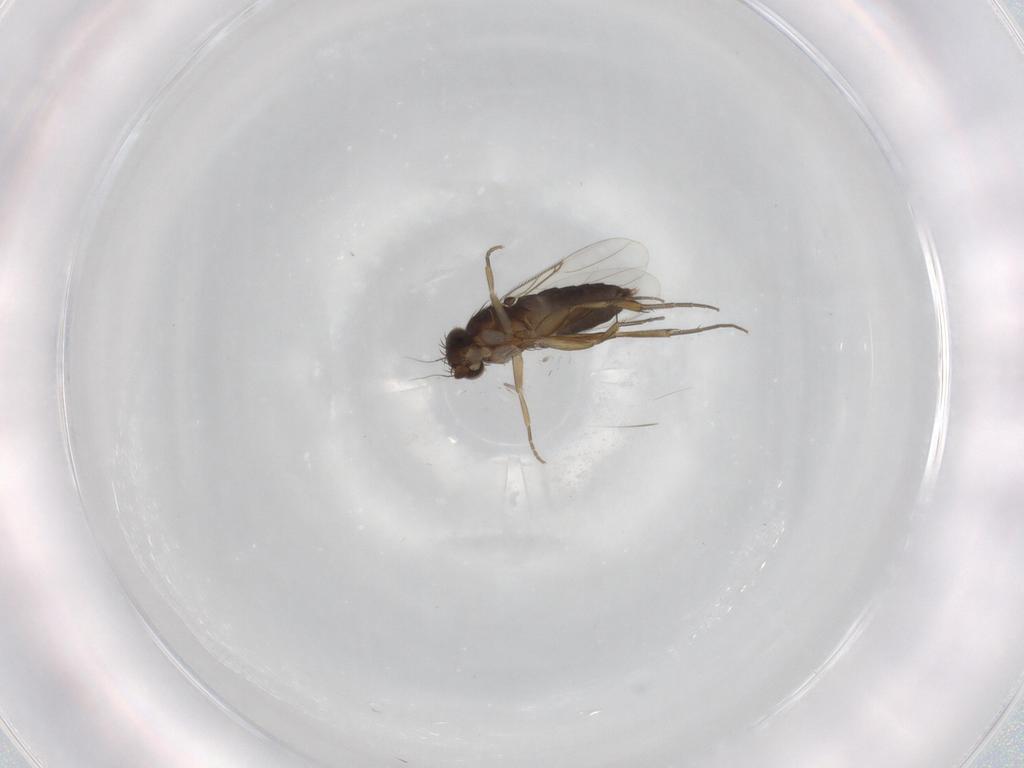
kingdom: Animalia
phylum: Arthropoda
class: Insecta
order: Diptera
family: Phoridae
